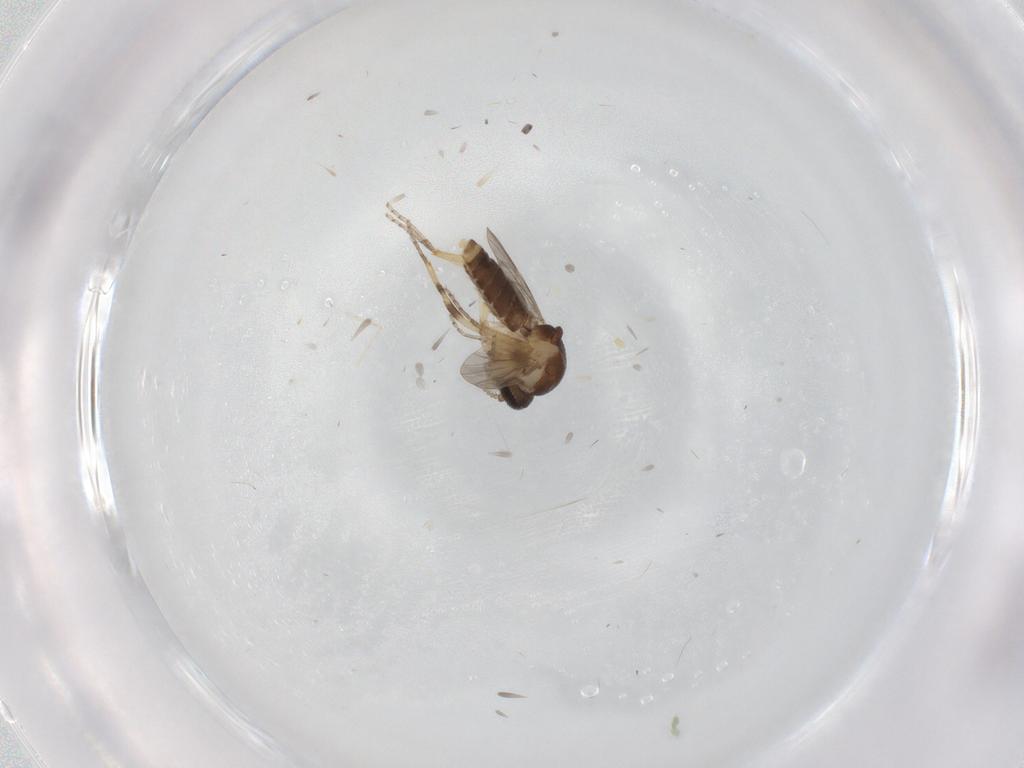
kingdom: Animalia
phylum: Arthropoda
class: Insecta
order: Diptera
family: Ceratopogonidae
